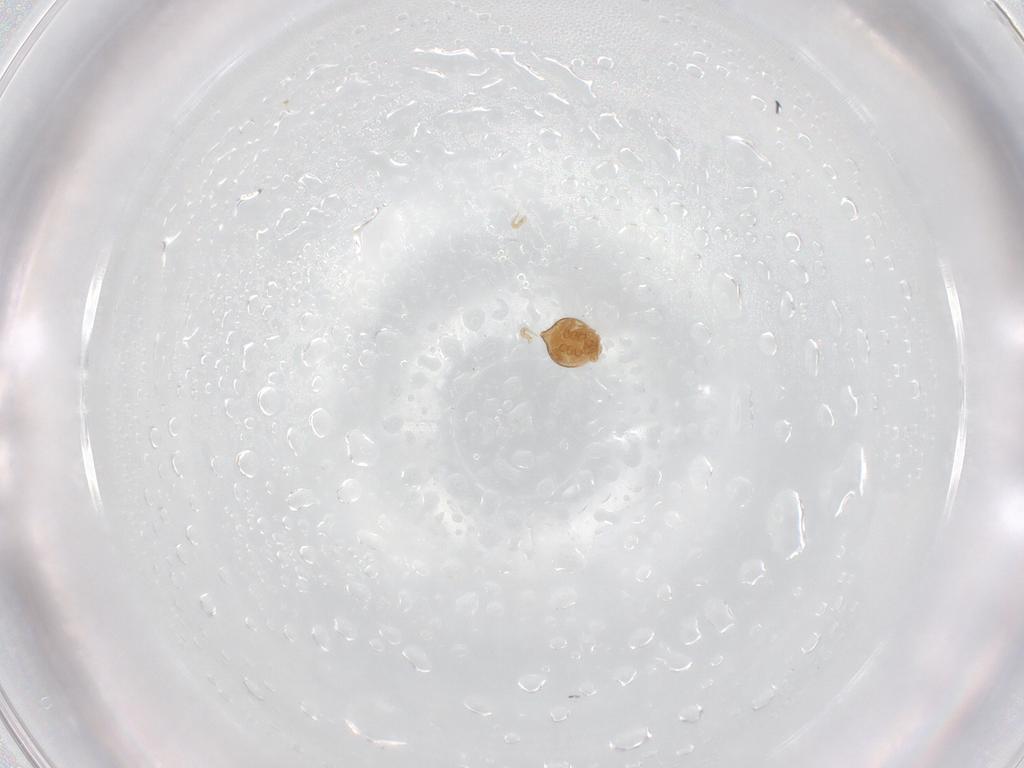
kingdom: Animalia
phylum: Arthropoda
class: Arachnida
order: Mesostigmata
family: Polyaspididae
